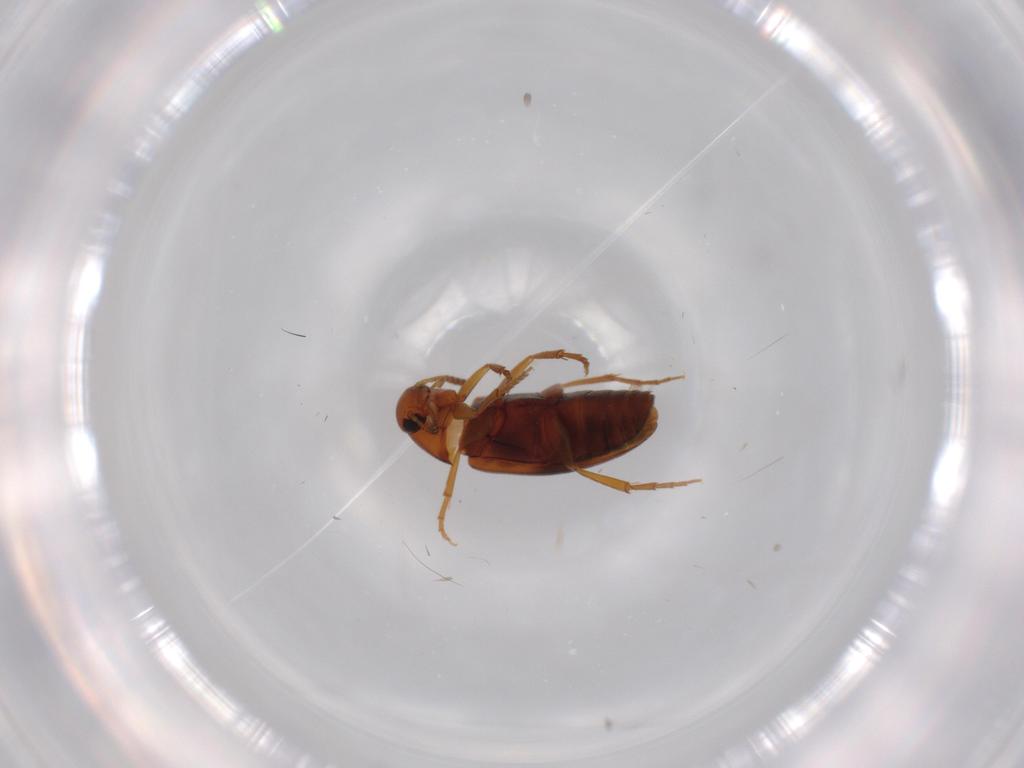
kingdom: Animalia
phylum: Arthropoda
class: Insecta
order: Coleoptera
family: Scraptiidae
